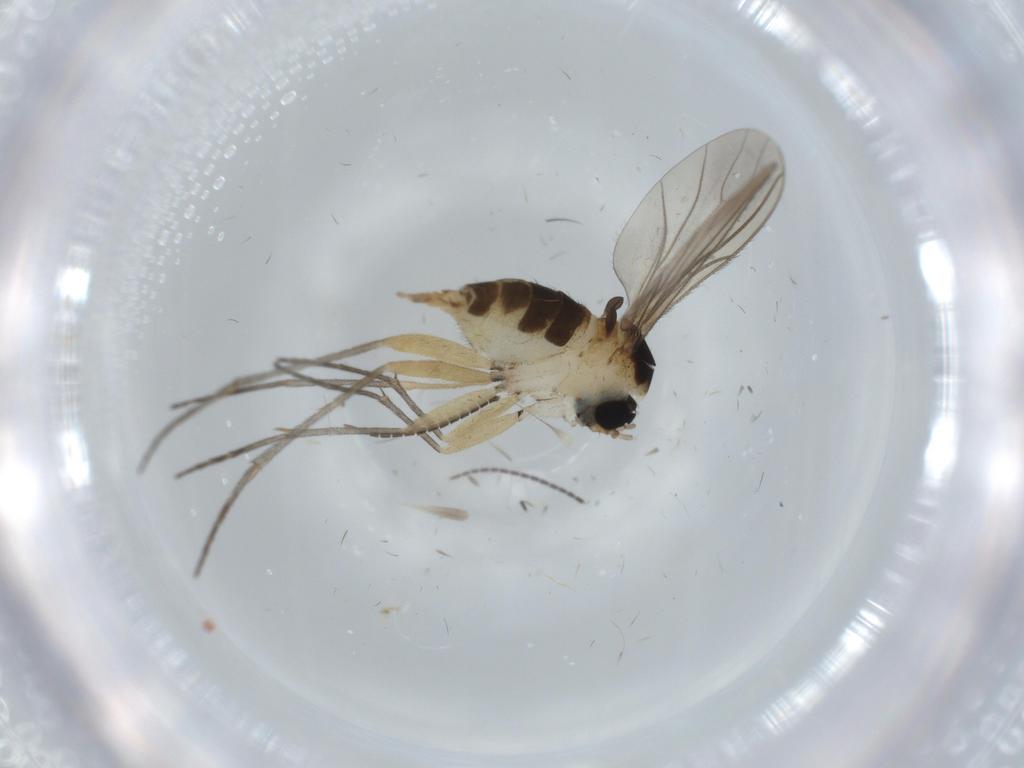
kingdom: Animalia
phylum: Arthropoda
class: Insecta
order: Diptera
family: Sciaridae
